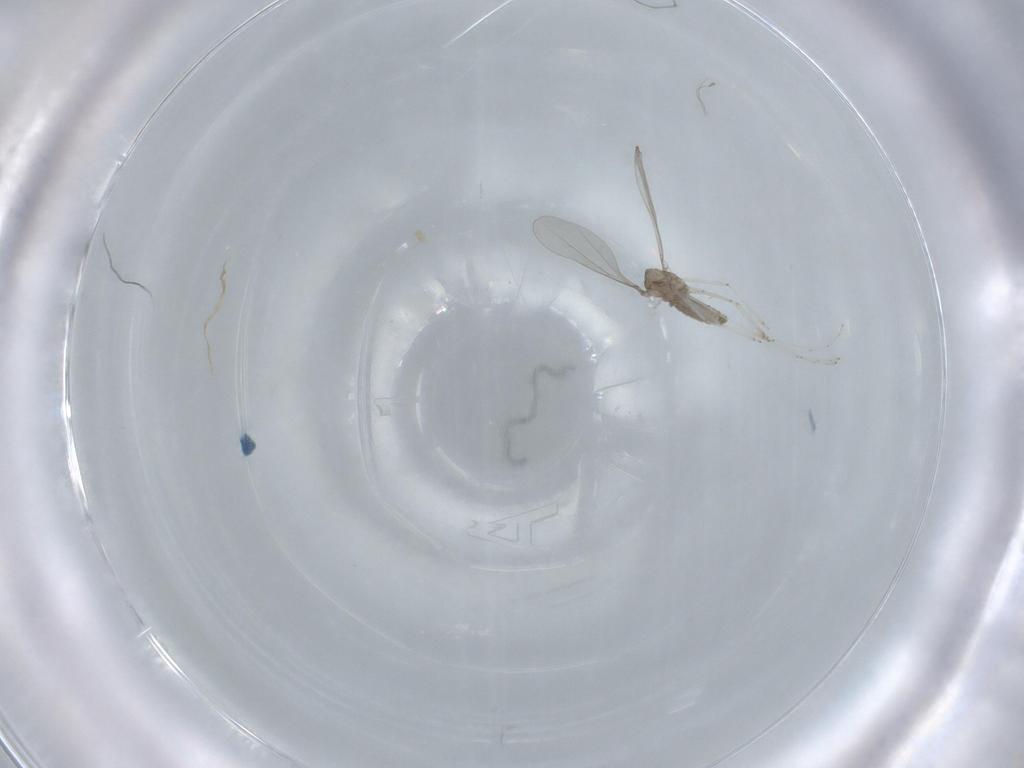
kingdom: Animalia
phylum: Arthropoda
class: Insecta
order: Diptera
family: Cecidomyiidae
